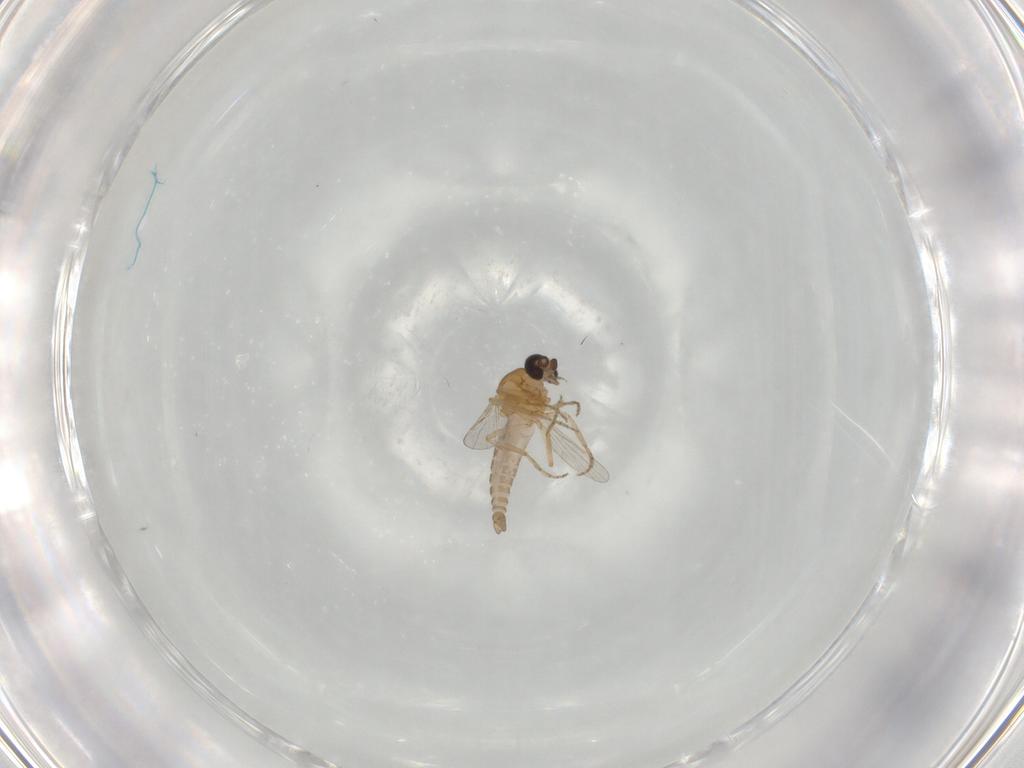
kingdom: Animalia
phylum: Arthropoda
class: Insecta
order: Diptera
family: Ceratopogonidae
